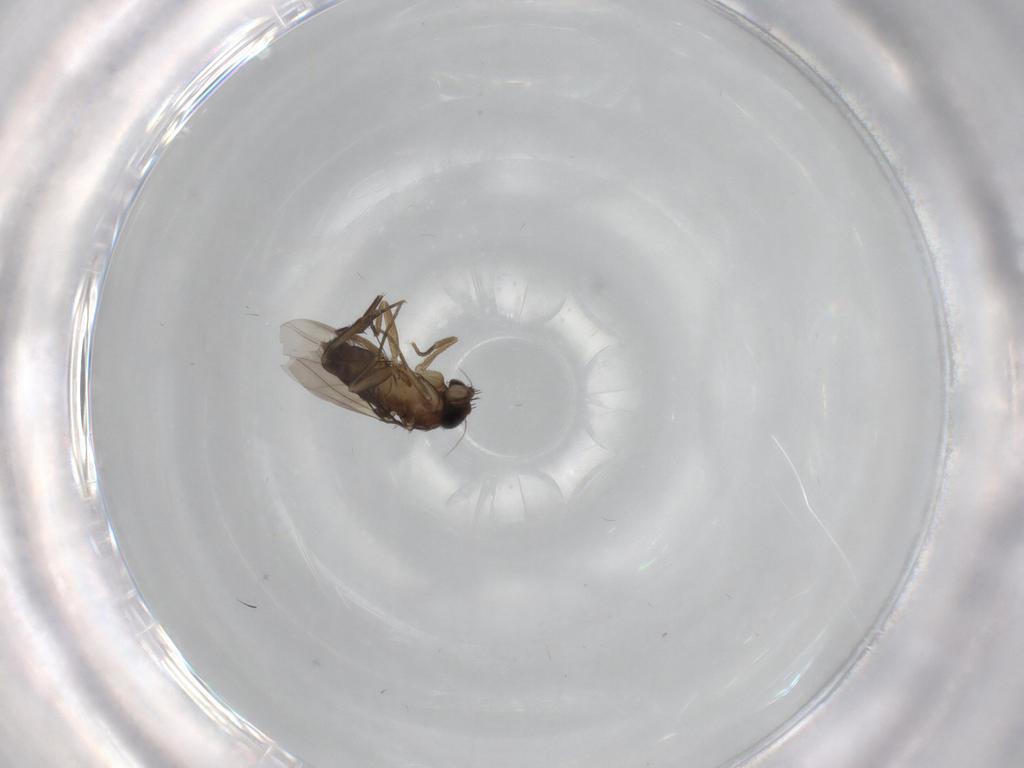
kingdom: Animalia
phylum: Arthropoda
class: Insecta
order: Diptera
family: Phoridae
